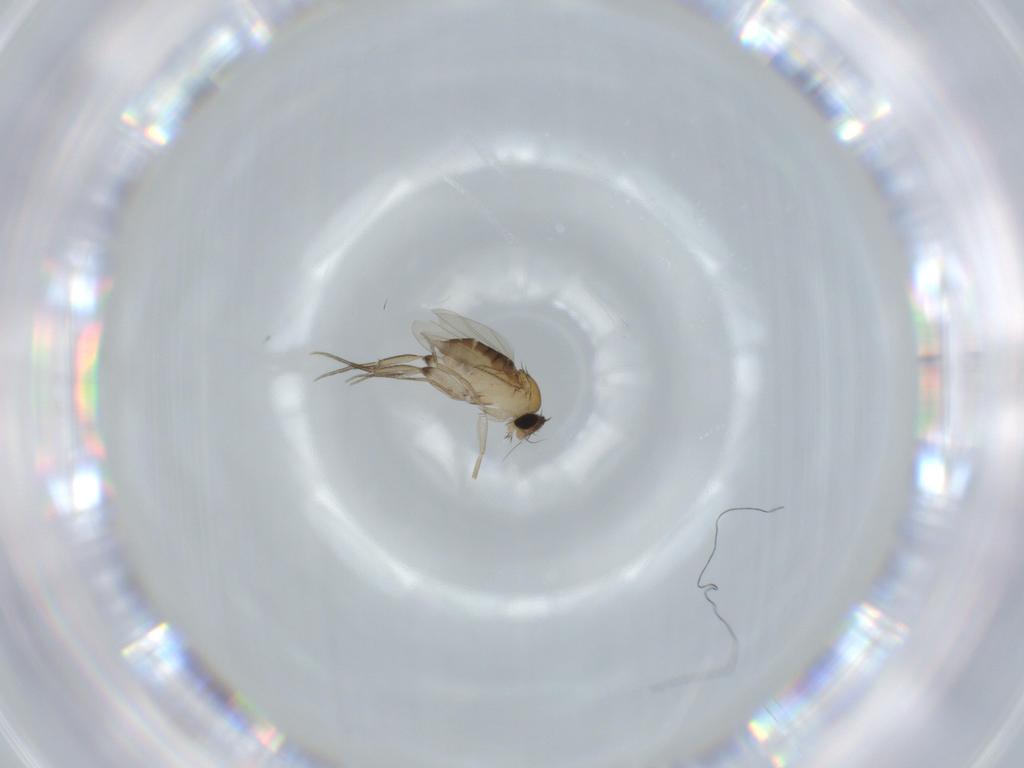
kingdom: Animalia
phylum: Arthropoda
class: Insecta
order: Diptera
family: Phoridae
